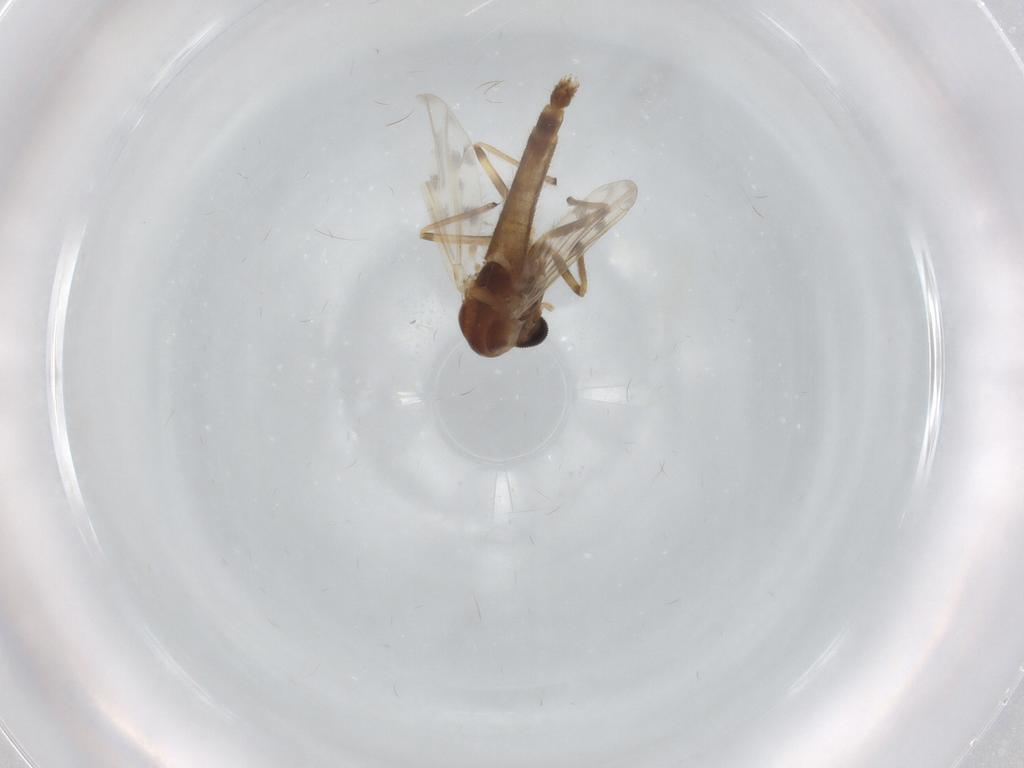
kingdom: Animalia
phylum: Arthropoda
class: Insecta
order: Diptera
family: Chironomidae
